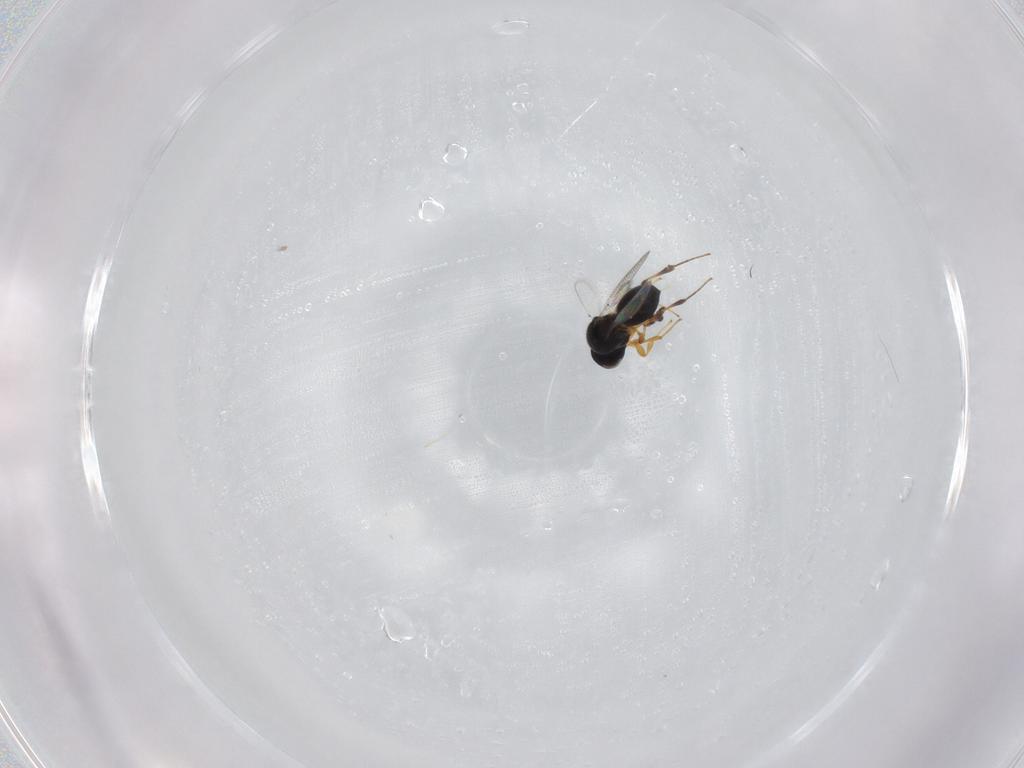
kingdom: Animalia
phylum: Arthropoda
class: Insecta
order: Hymenoptera
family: Platygastridae
